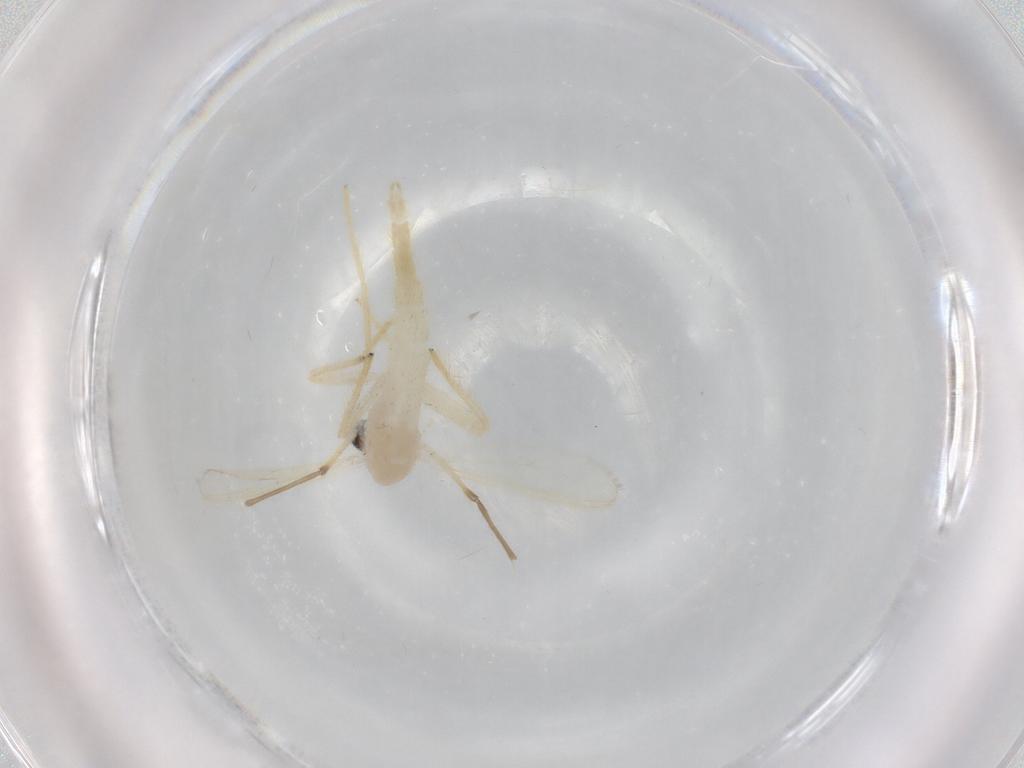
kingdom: Animalia
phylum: Arthropoda
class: Insecta
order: Diptera
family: Chironomidae
